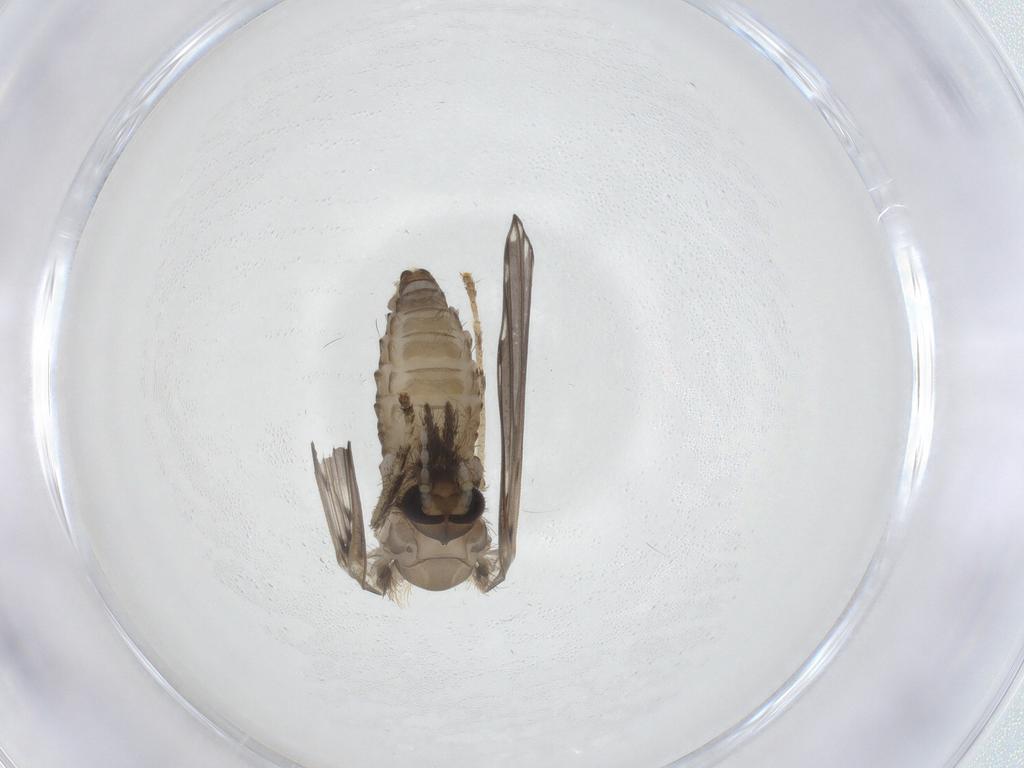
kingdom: Animalia
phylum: Arthropoda
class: Insecta
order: Diptera
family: Psychodidae
